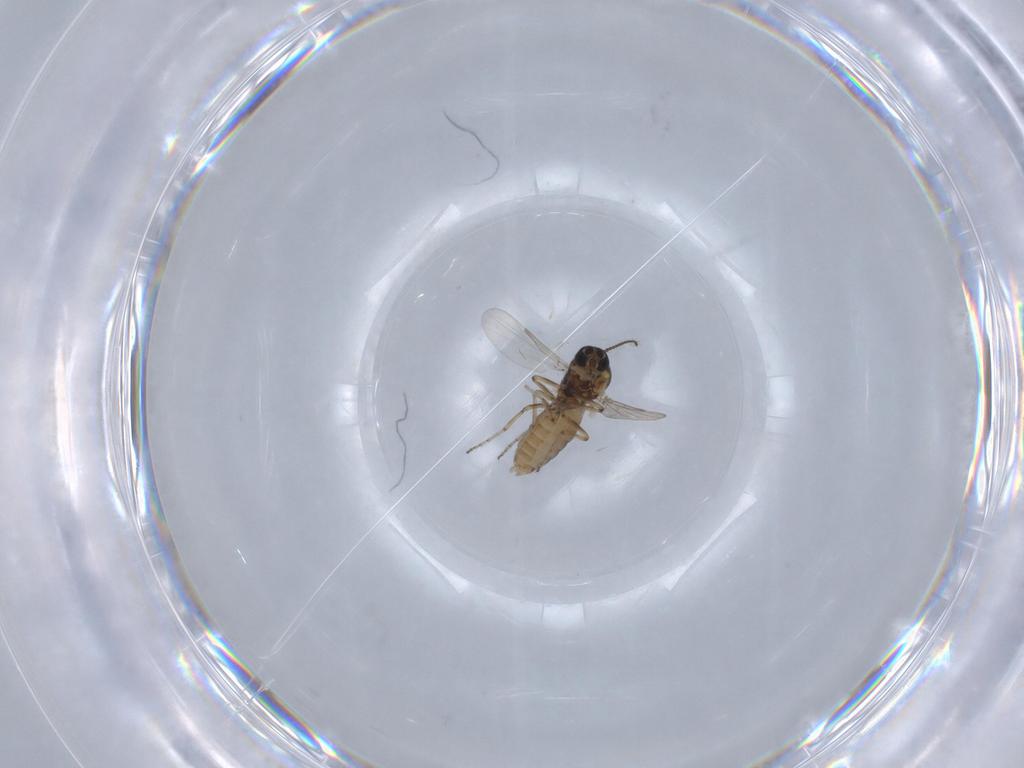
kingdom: Animalia
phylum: Arthropoda
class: Insecta
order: Diptera
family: Ceratopogonidae
